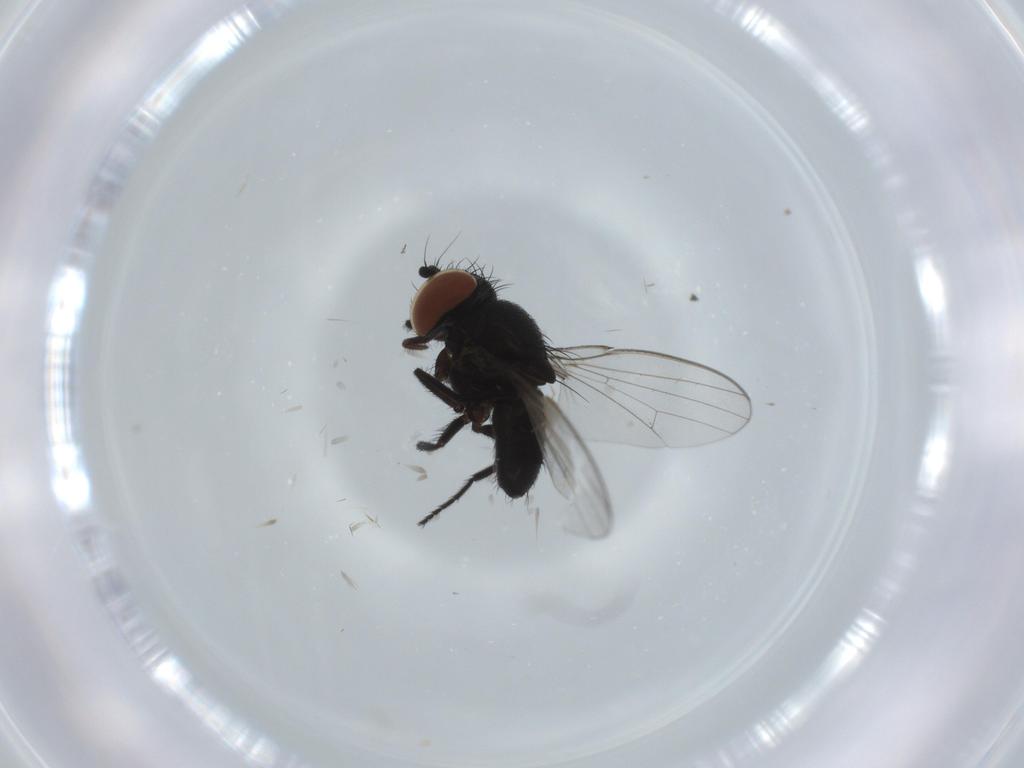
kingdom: Animalia
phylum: Arthropoda
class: Insecta
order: Diptera
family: Milichiidae
